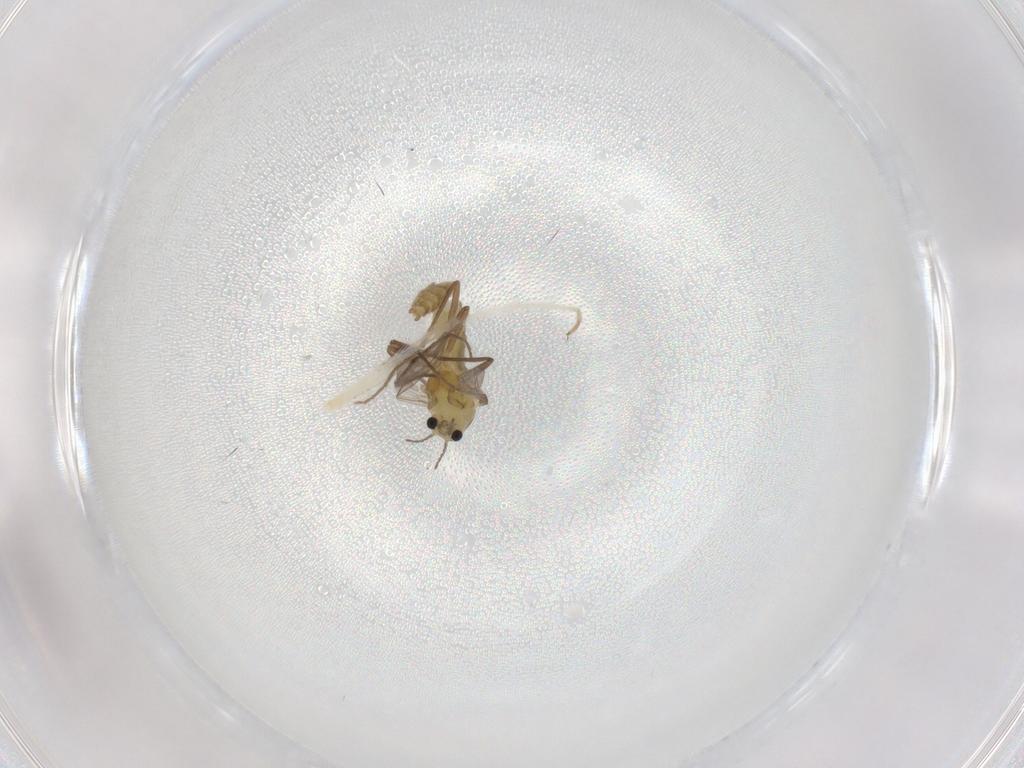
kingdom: Animalia
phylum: Arthropoda
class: Insecta
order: Diptera
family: Chironomidae
